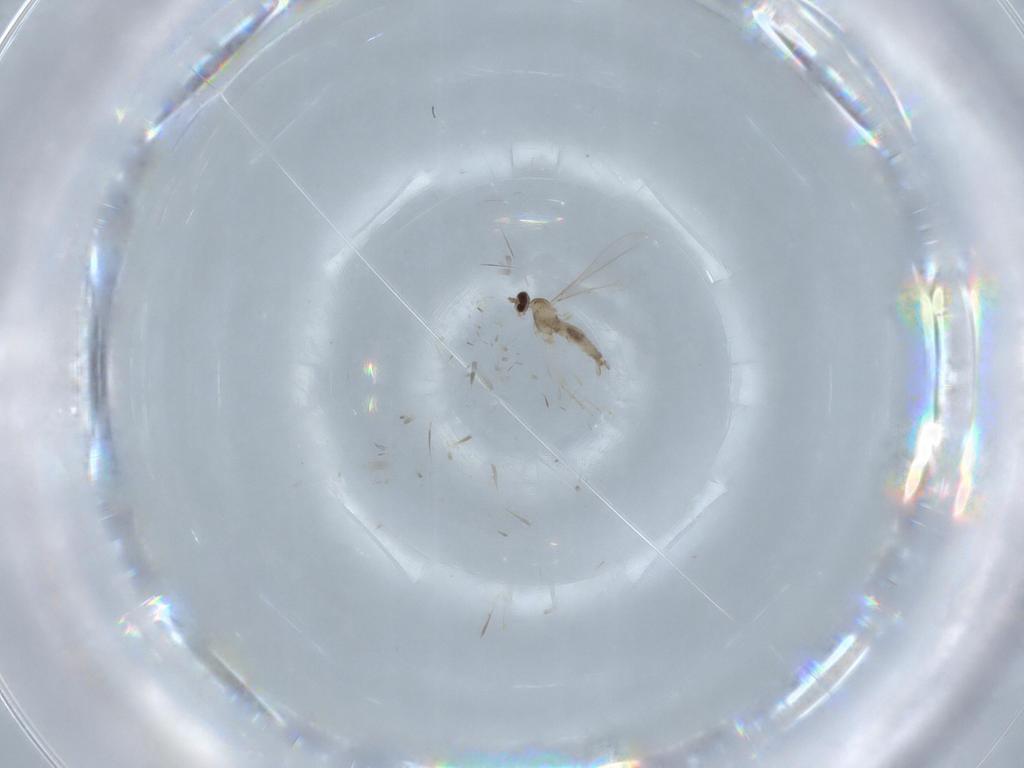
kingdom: Animalia
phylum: Arthropoda
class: Insecta
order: Diptera
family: Cecidomyiidae
